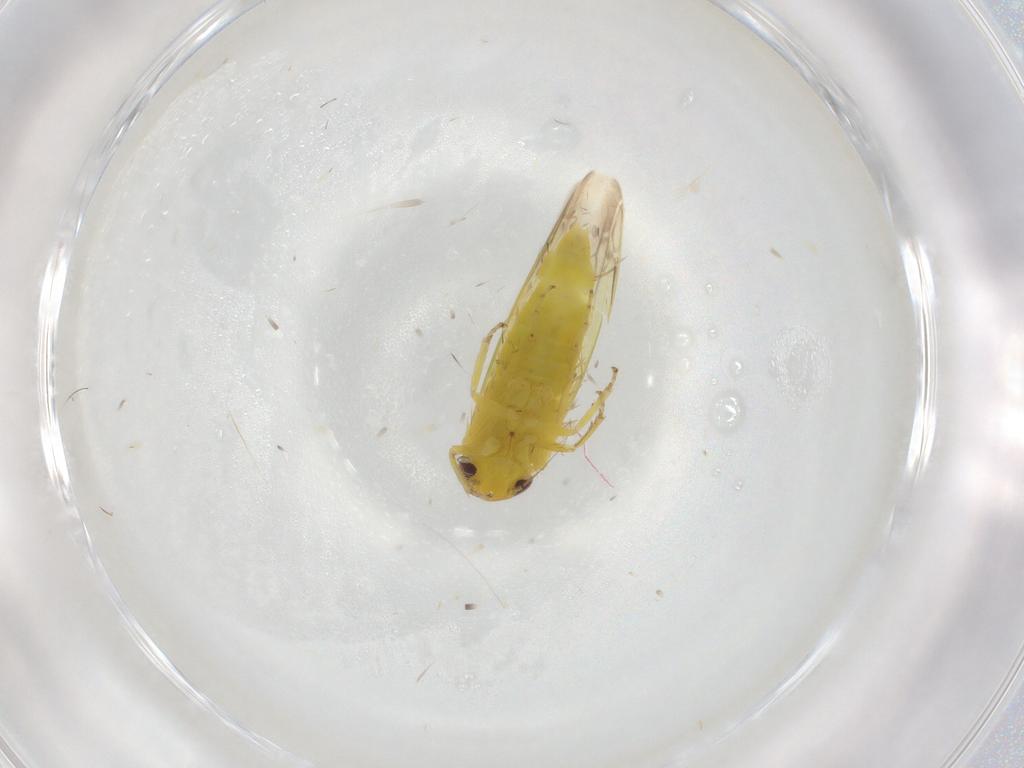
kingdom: Animalia
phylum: Arthropoda
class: Insecta
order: Hemiptera
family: Cicadellidae
